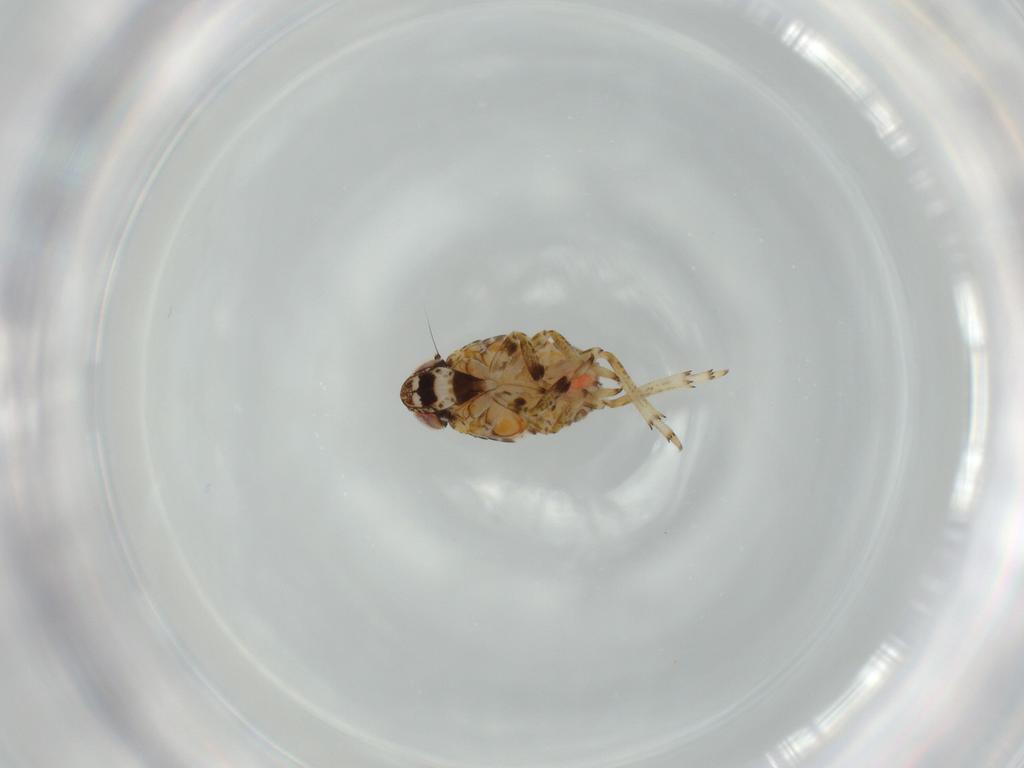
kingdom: Animalia
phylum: Arthropoda
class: Insecta
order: Hemiptera
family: Issidae
